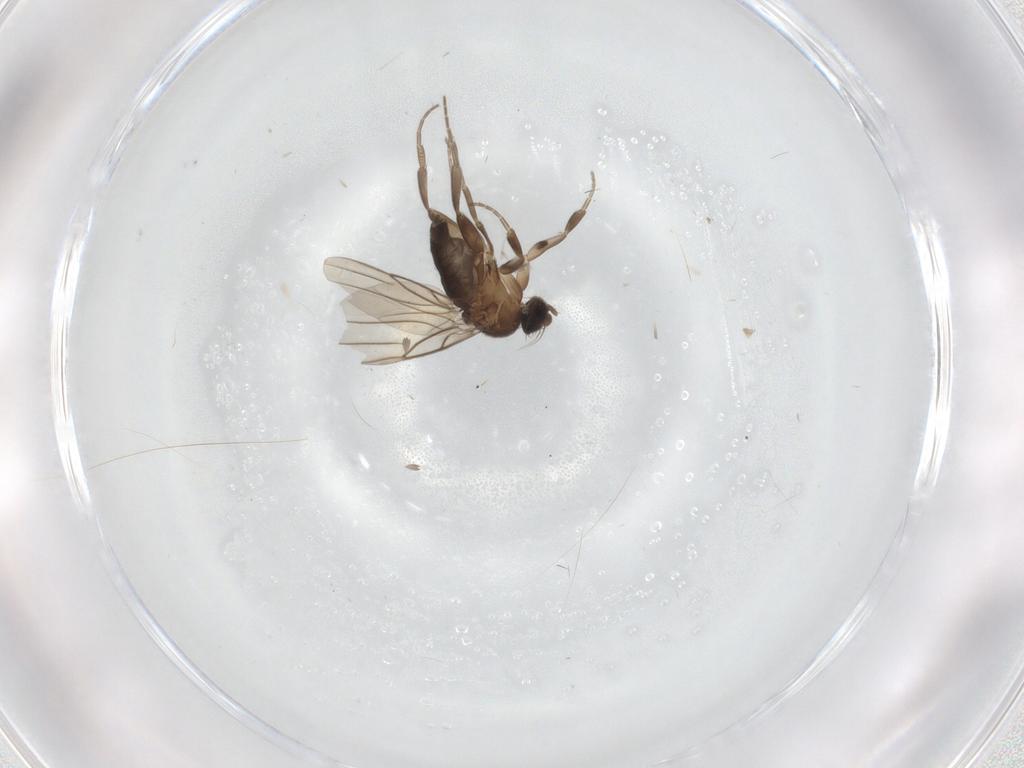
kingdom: Animalia
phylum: Arthropoda
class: Insecta
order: Diptera
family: Phoridae
